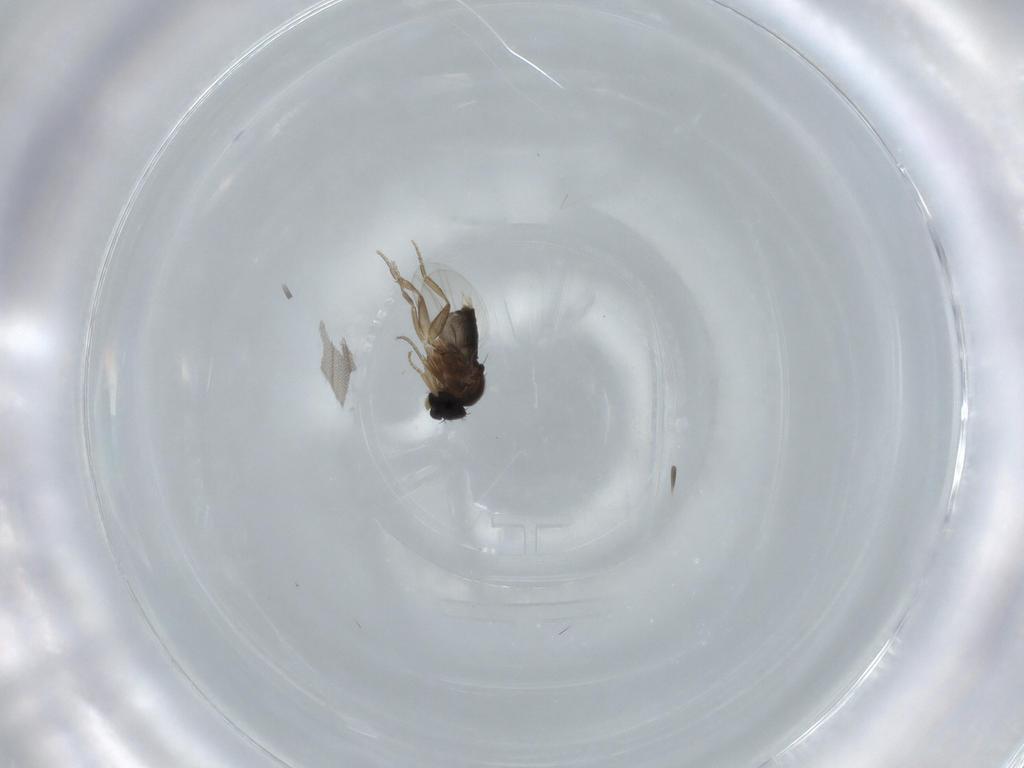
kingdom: Animalia
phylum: Arthropoda
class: Insecta
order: Diptera
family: Phoridae
